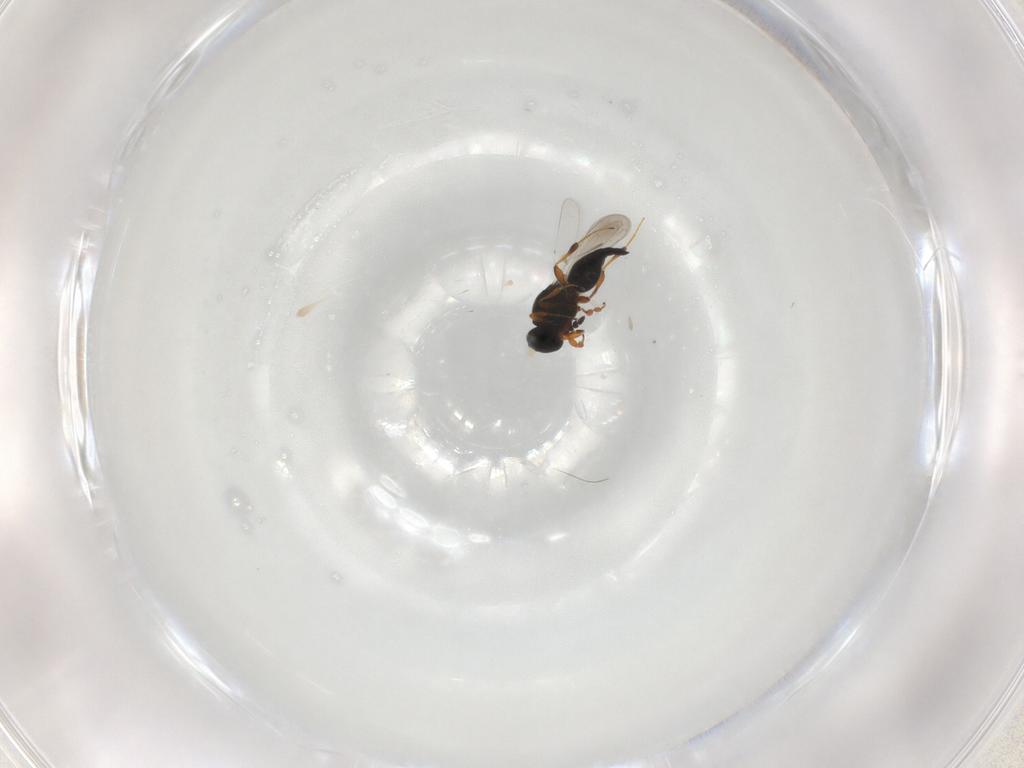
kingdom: Animalia
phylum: Arthropoda
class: Insecta
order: Hymenoptera
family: Platygastridae
